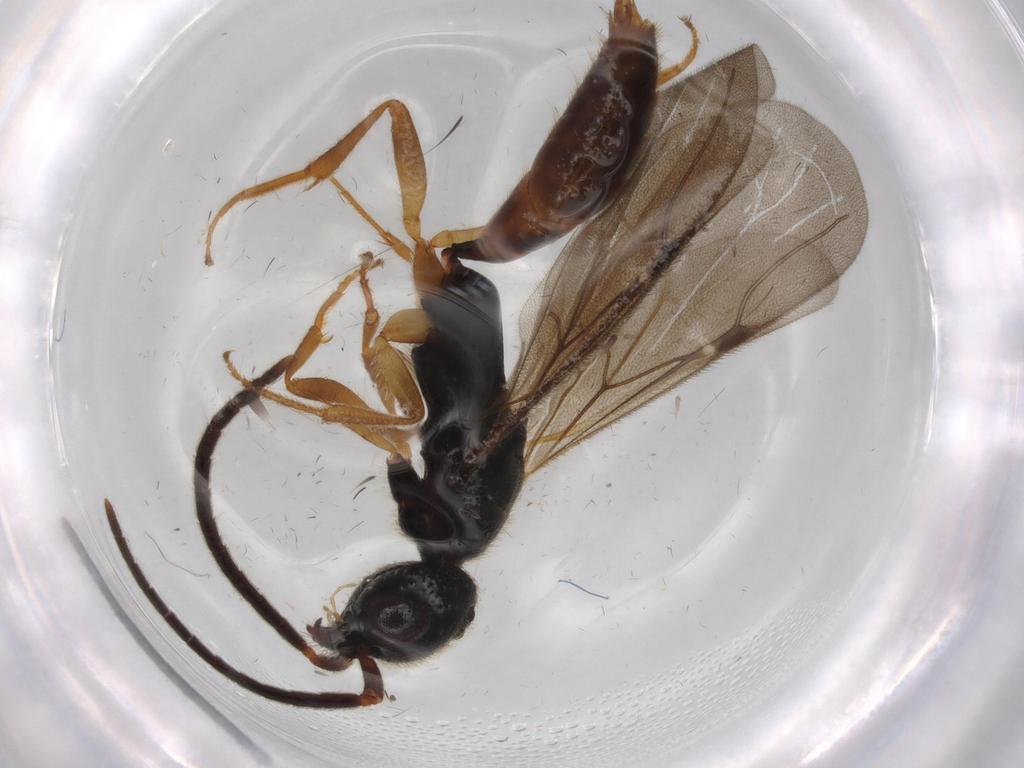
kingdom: Animalia
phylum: Arthropoda
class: Insecta
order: Hymenoptera
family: Bethylidae
